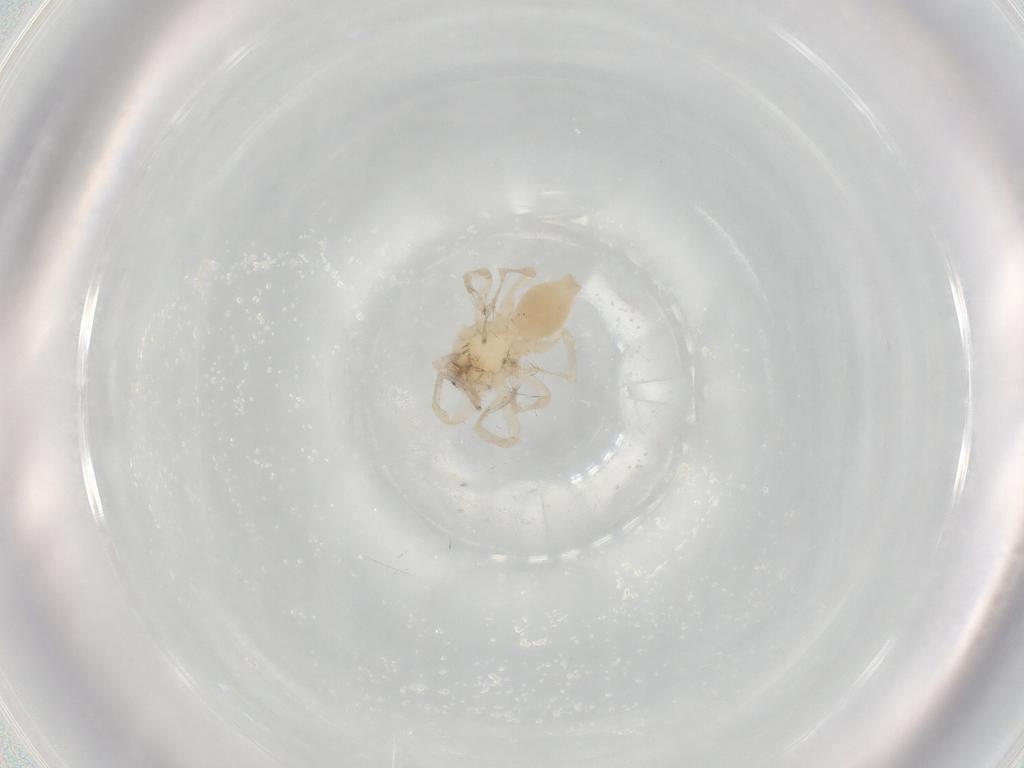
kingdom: Animalia
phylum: Arthropoda
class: Arachnida
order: Araneae
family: Clubionidae
